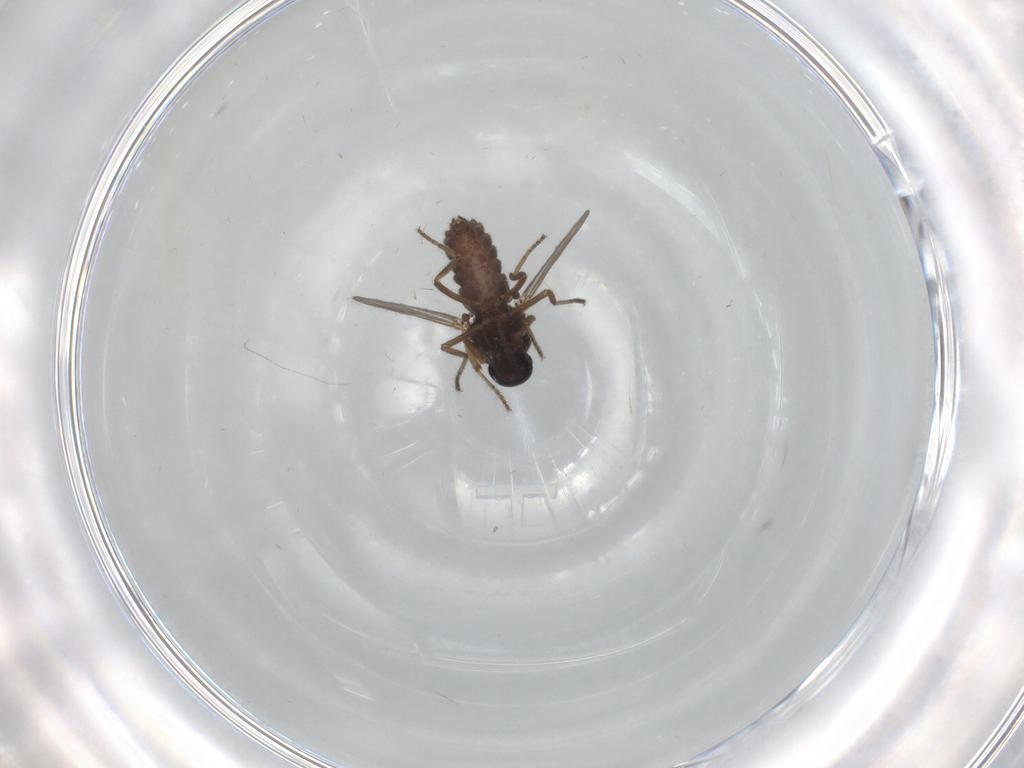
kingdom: Animalia
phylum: Arthropoda
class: Insecta
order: Diptera
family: Ceratopogonidae
